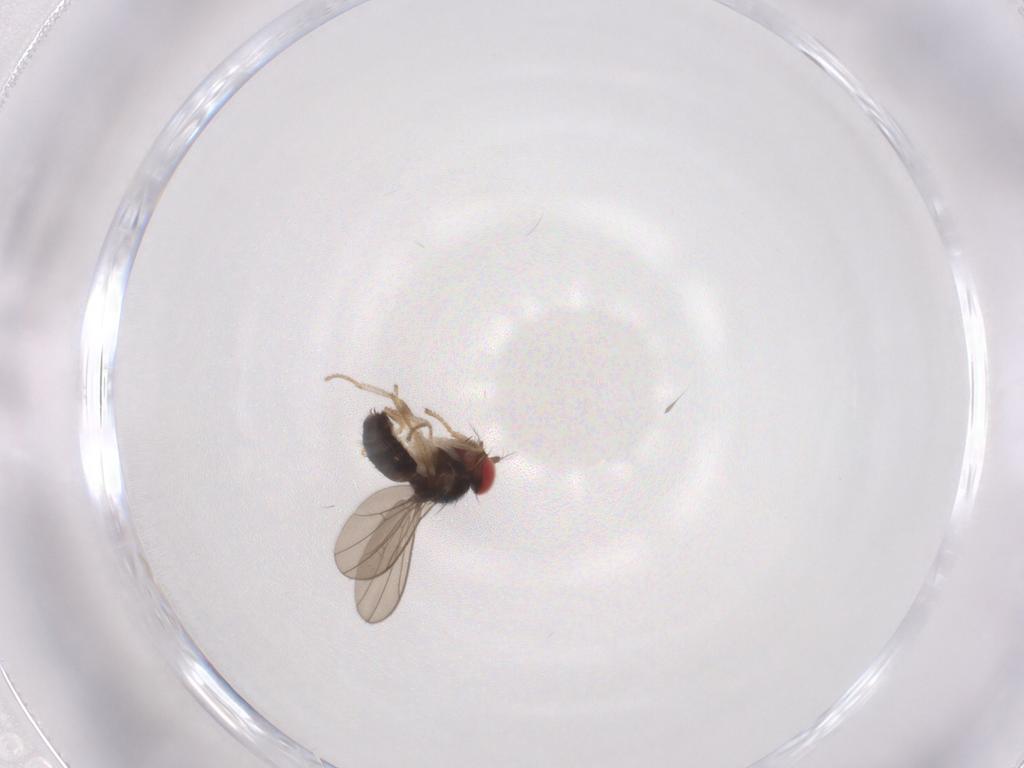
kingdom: Animalia
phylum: Arthropoda
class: Insecta
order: Diptera
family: Drosophilidae
